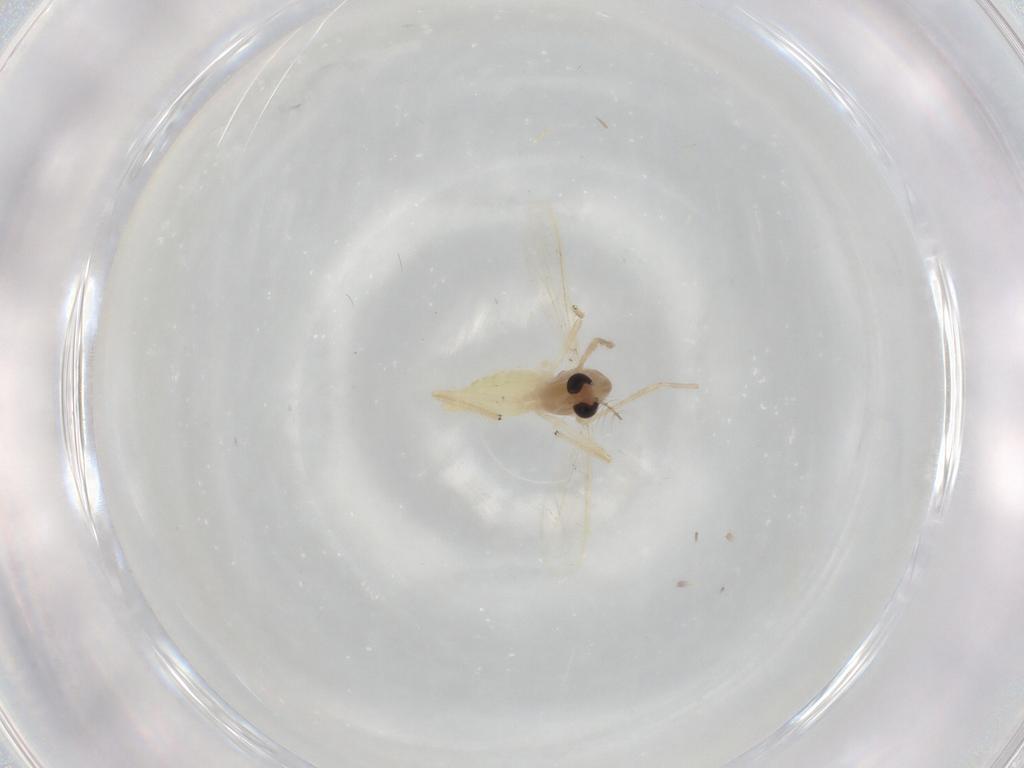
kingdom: Animalia
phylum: Arthropoda
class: Insecta
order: Diptera
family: Chironomidae
